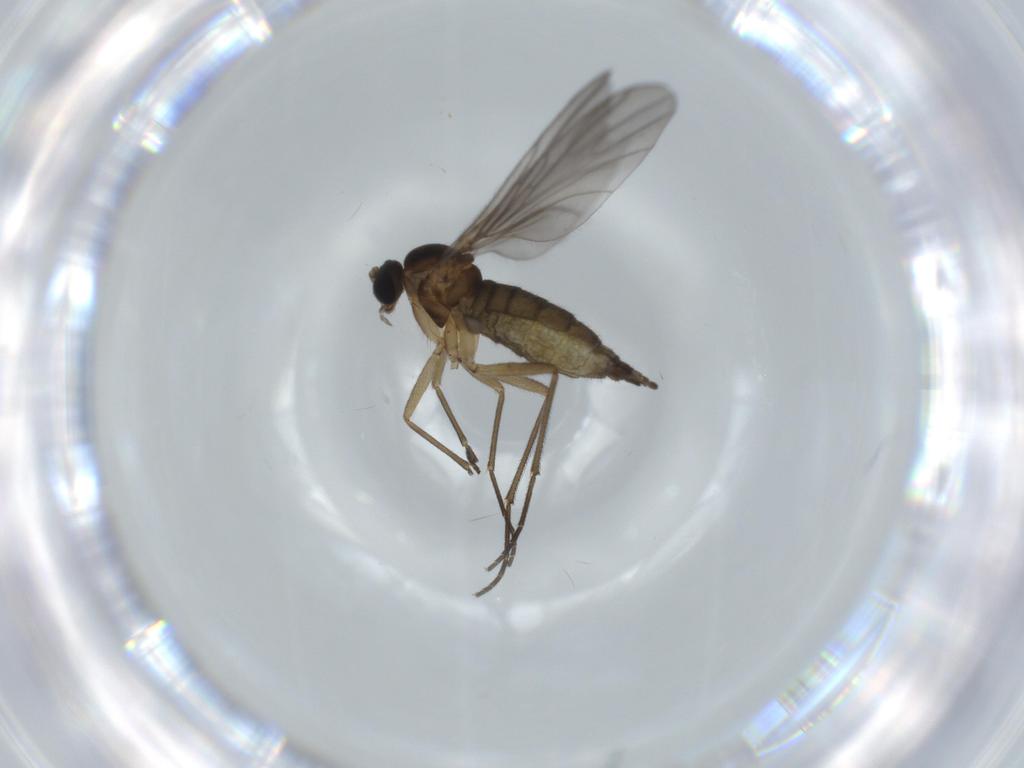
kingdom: Animalia
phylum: Arthropoda
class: Insecta
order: Diptera
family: Sciaridae
